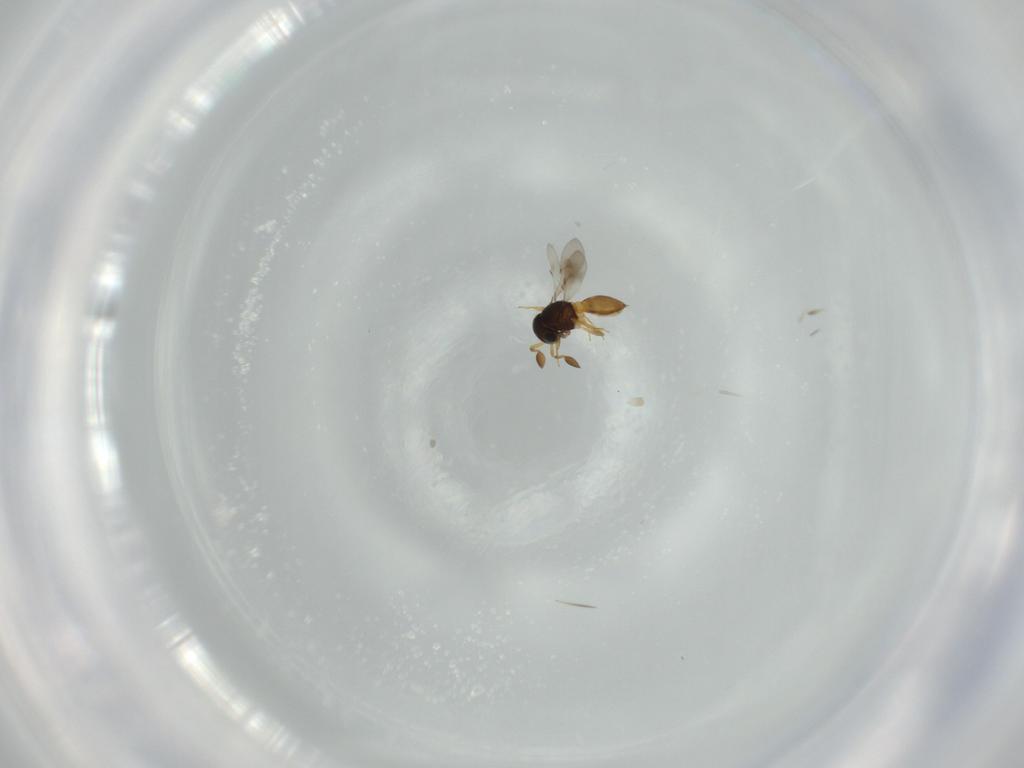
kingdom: Animalia
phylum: Arthropoda
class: Insecta
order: Hymenoptera
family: Scelionidae
